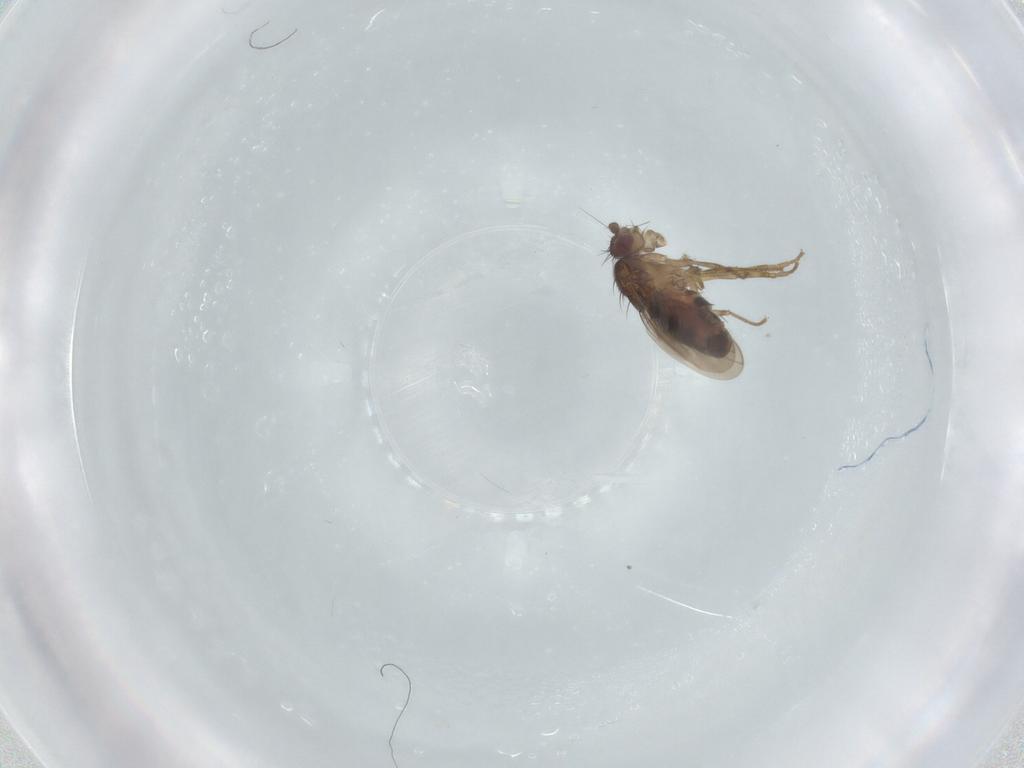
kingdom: Animalia
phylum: Arthropoda
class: Insecta
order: Diptera
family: Sphaeroceridae
